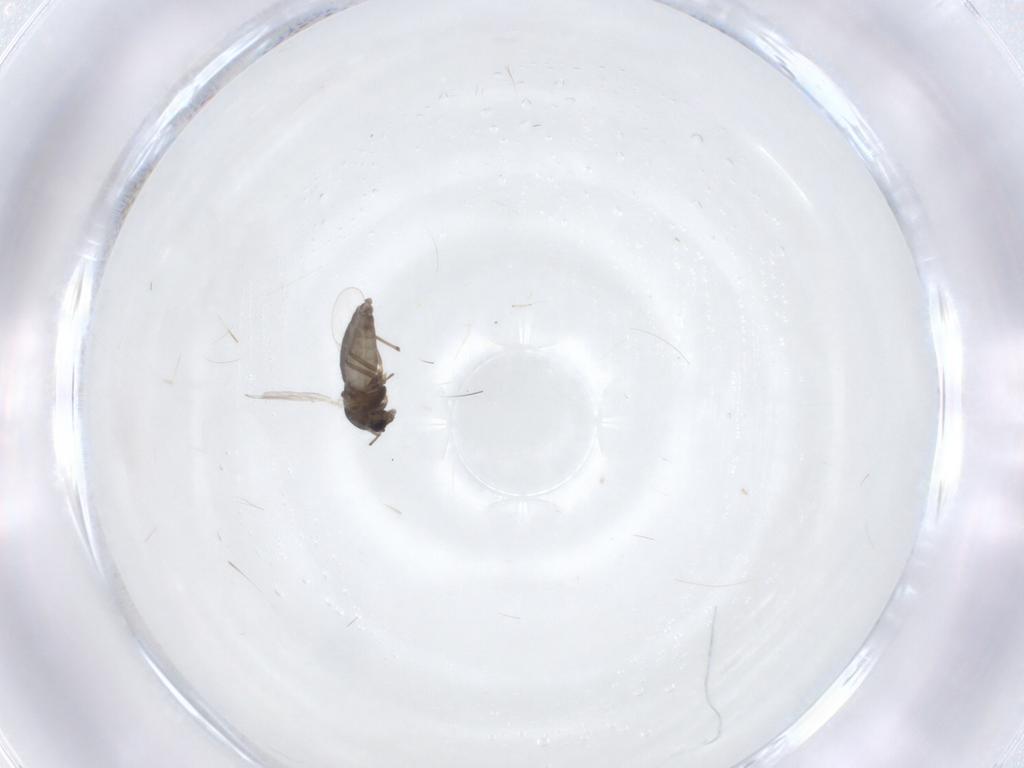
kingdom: Animalia
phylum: Arthropoda
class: Insecta
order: Diptera
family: Chironomidae
